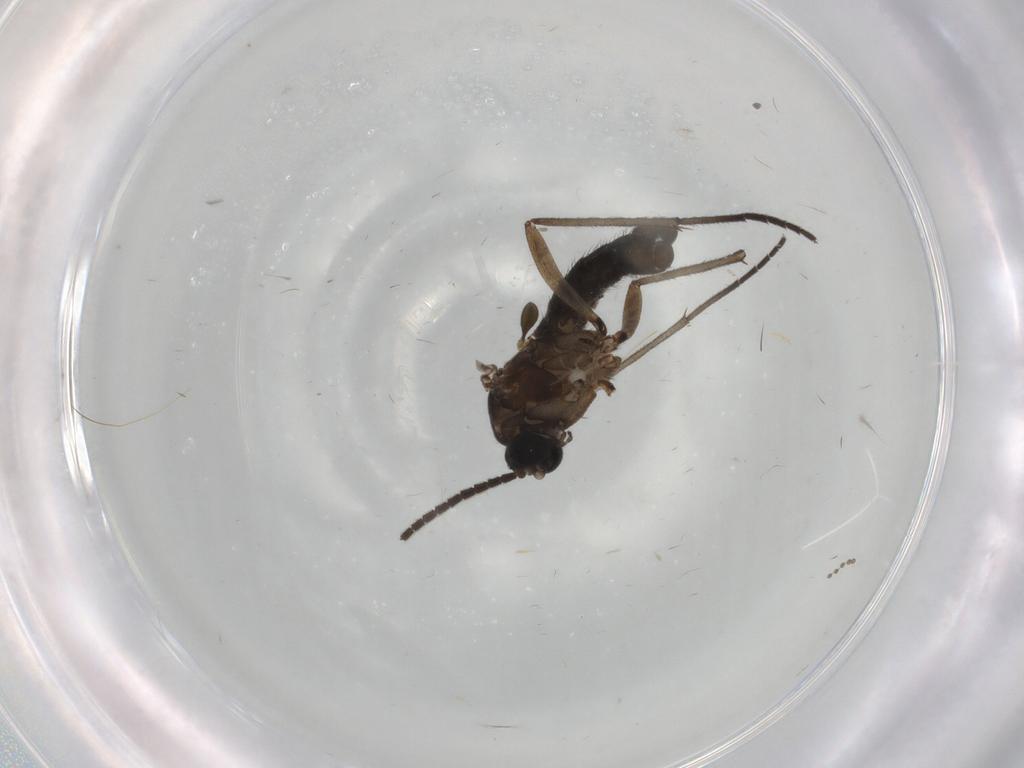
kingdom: Animalia
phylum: Arthropoda
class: Insecta
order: Diptera
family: Sciaridae
